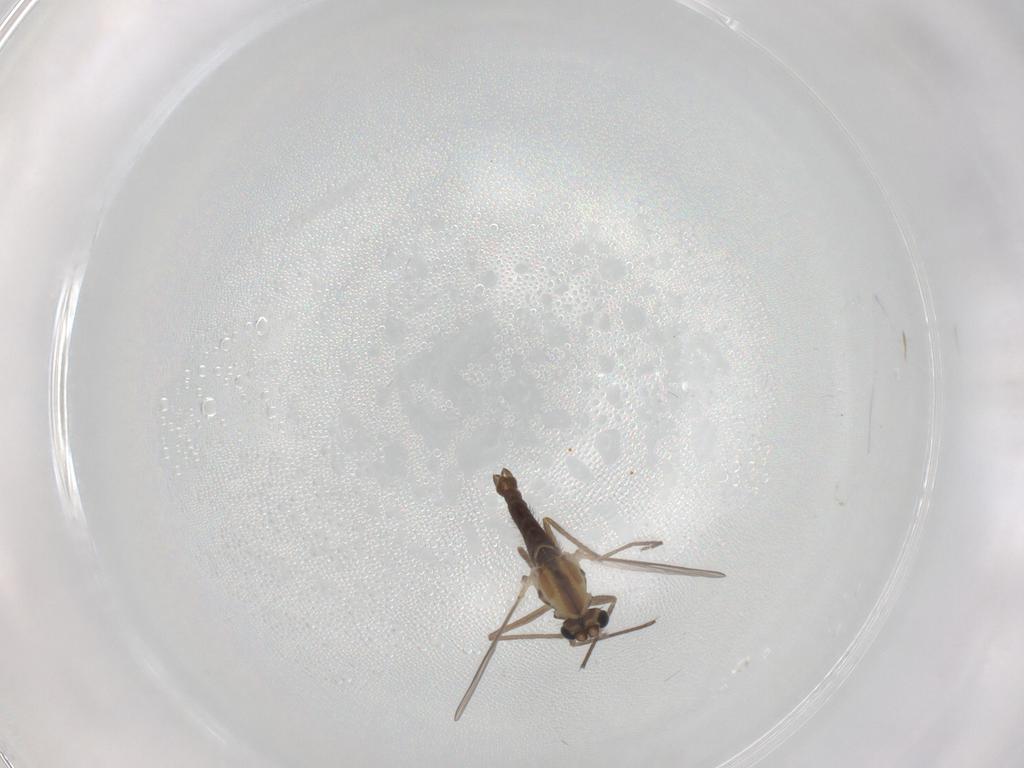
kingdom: Animalia
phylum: Arthropoda
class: Insecta
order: Diptera
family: Chironomidae
